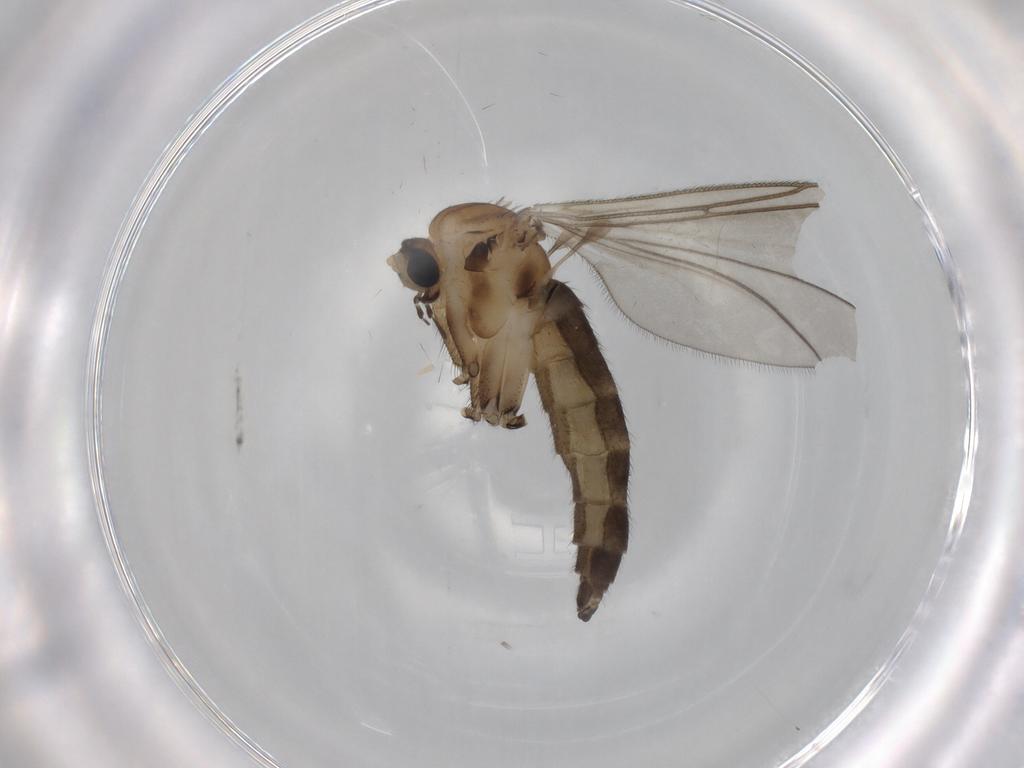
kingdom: Animalia
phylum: Arthropoda
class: Insecta
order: Diptera
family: Sciaridae
